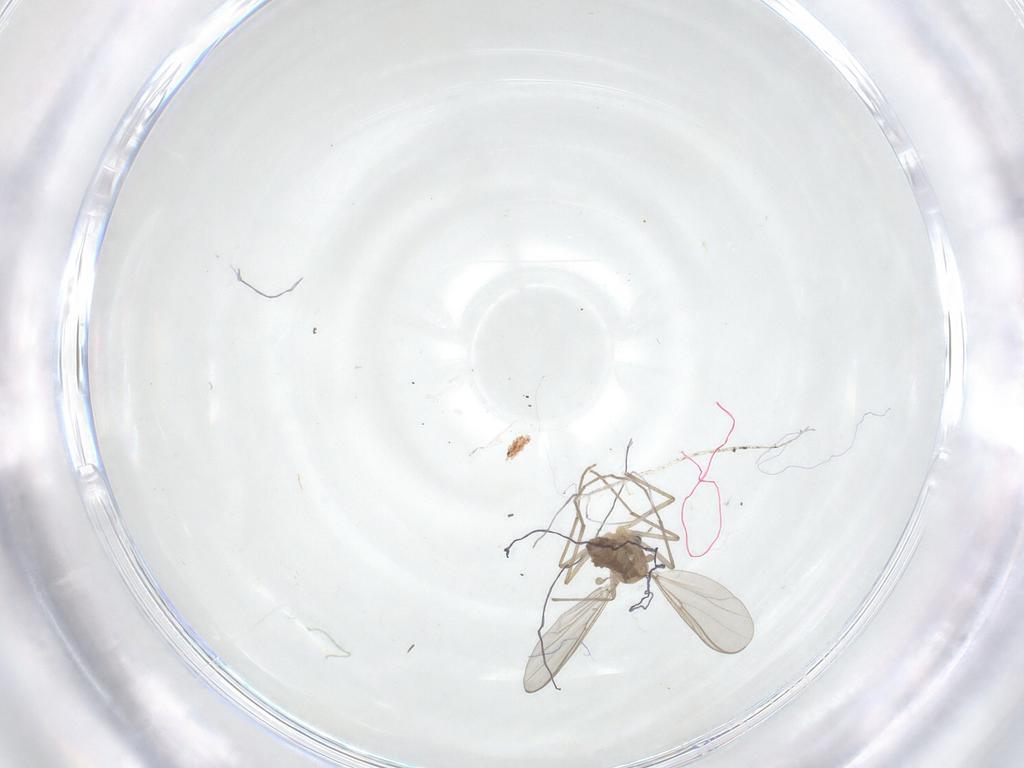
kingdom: Animalia
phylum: Arthropoda
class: Insecta
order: Diptera
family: Chironomidae
